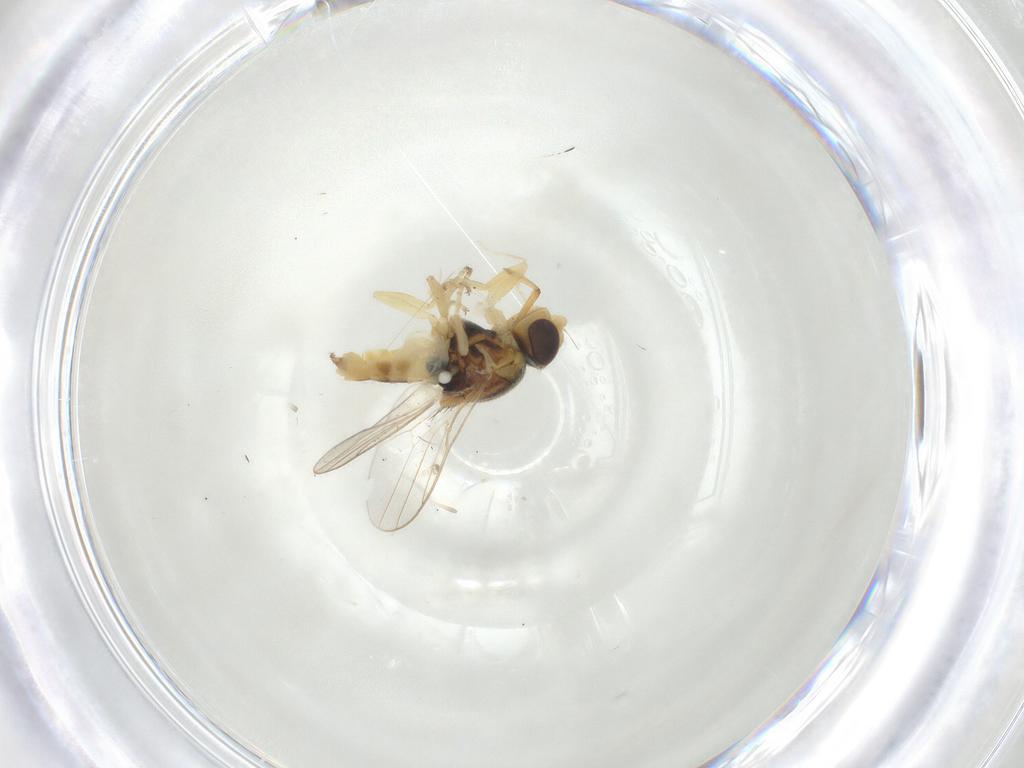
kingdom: Animalia
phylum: Arthropoda
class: Insecta
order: Diptera
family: Chloropidae
